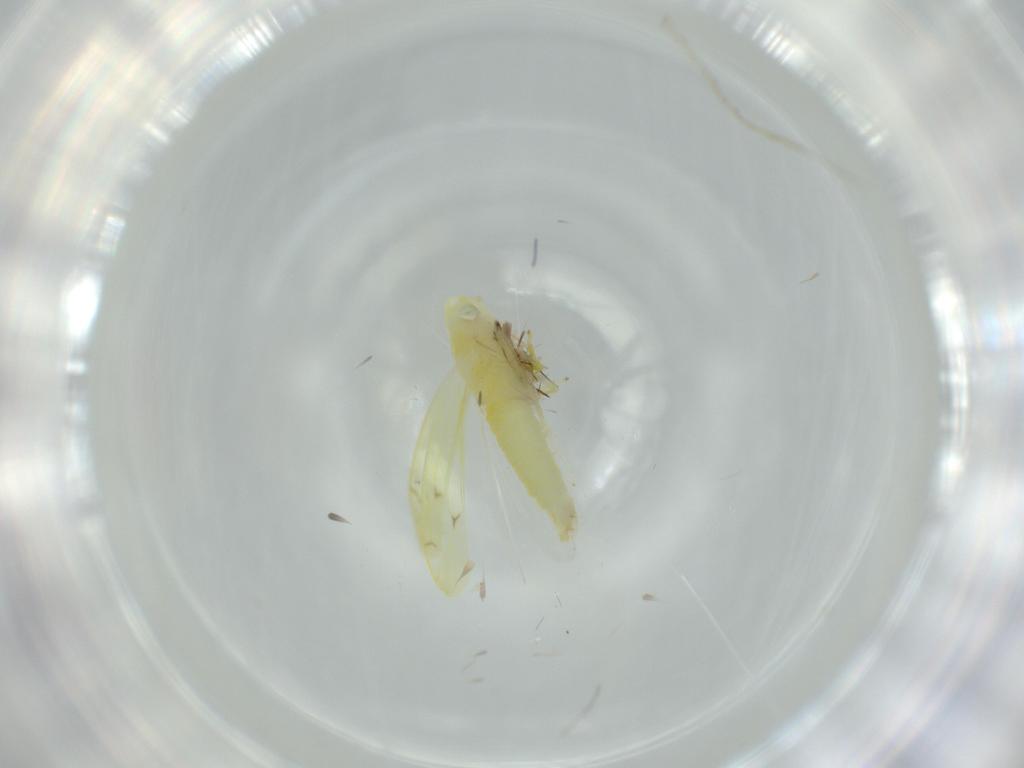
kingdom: Animalia
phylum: Arthropoda
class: Insecta
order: Hemiptera
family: Cicadellidae
